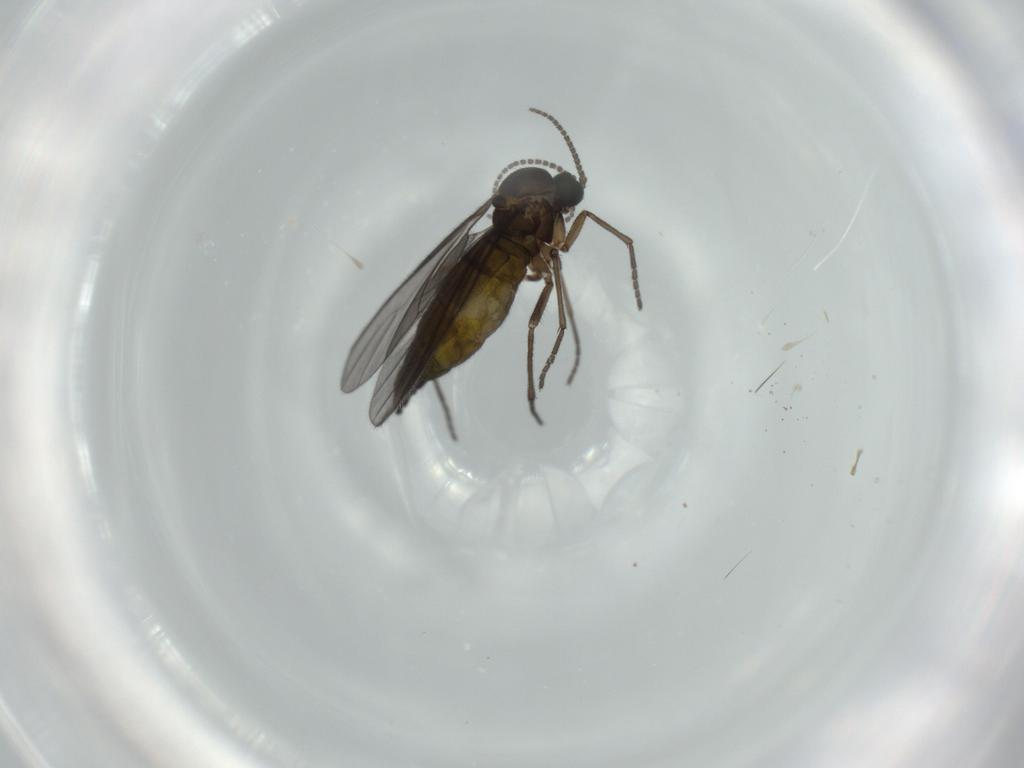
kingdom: Animalia
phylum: Arthropoda
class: Insecta
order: Diptera
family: Sciaridae
